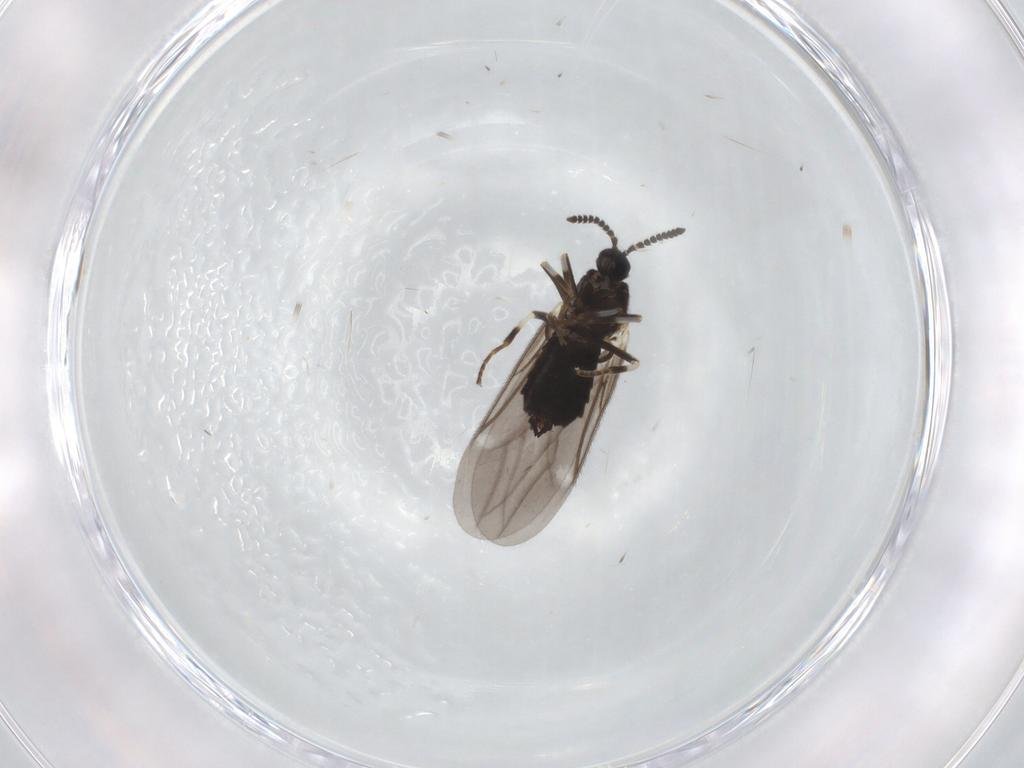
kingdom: Animalia
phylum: Arthropoda
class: Insecta
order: Diptera
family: Scatopsidae
